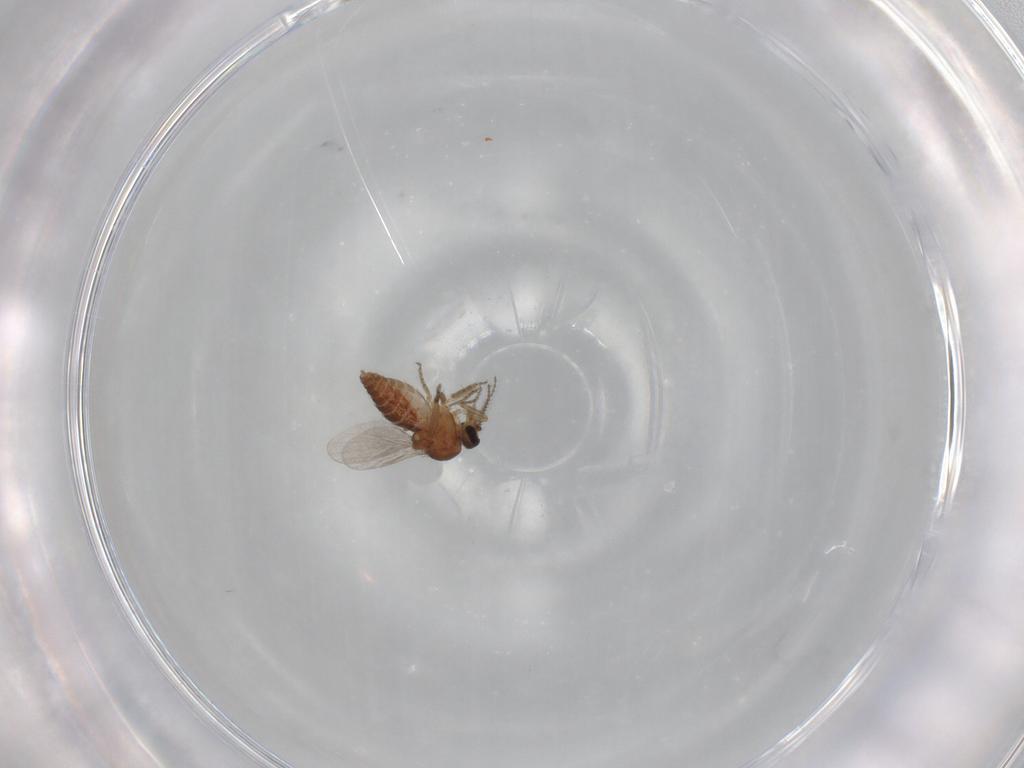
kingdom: Animalia
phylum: Arthropoda
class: Insecta
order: Diptera
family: Ceratopogonidae
